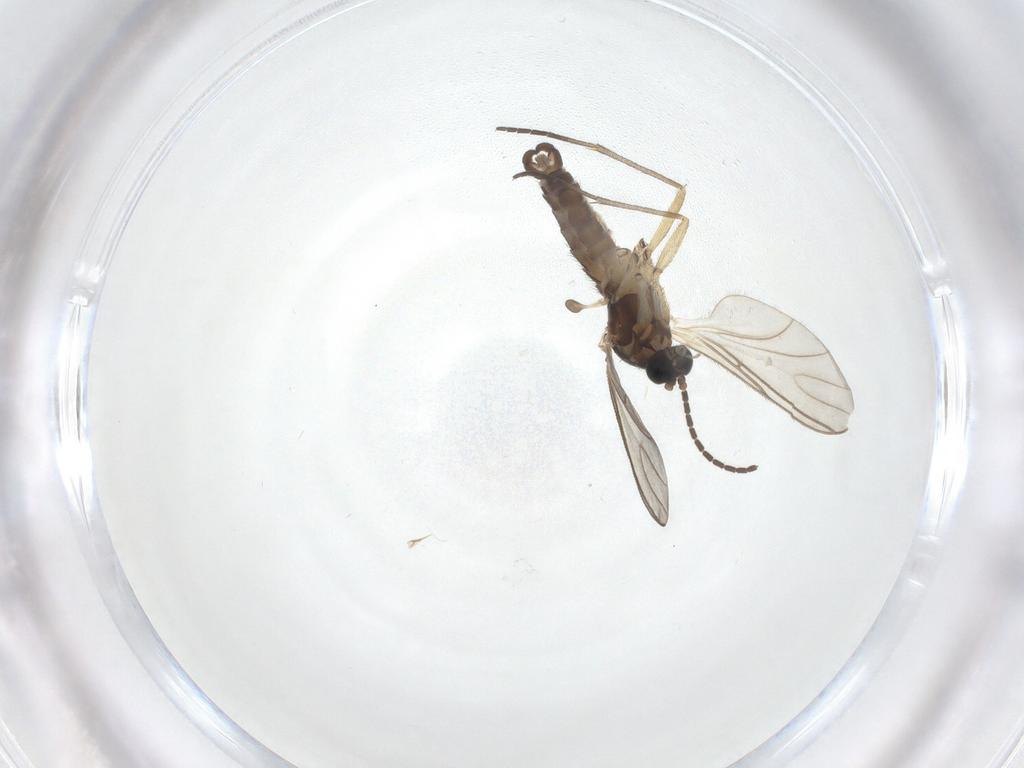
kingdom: Animalia
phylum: Arthropoda
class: Insecta
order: Diptera
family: Sciaridae
